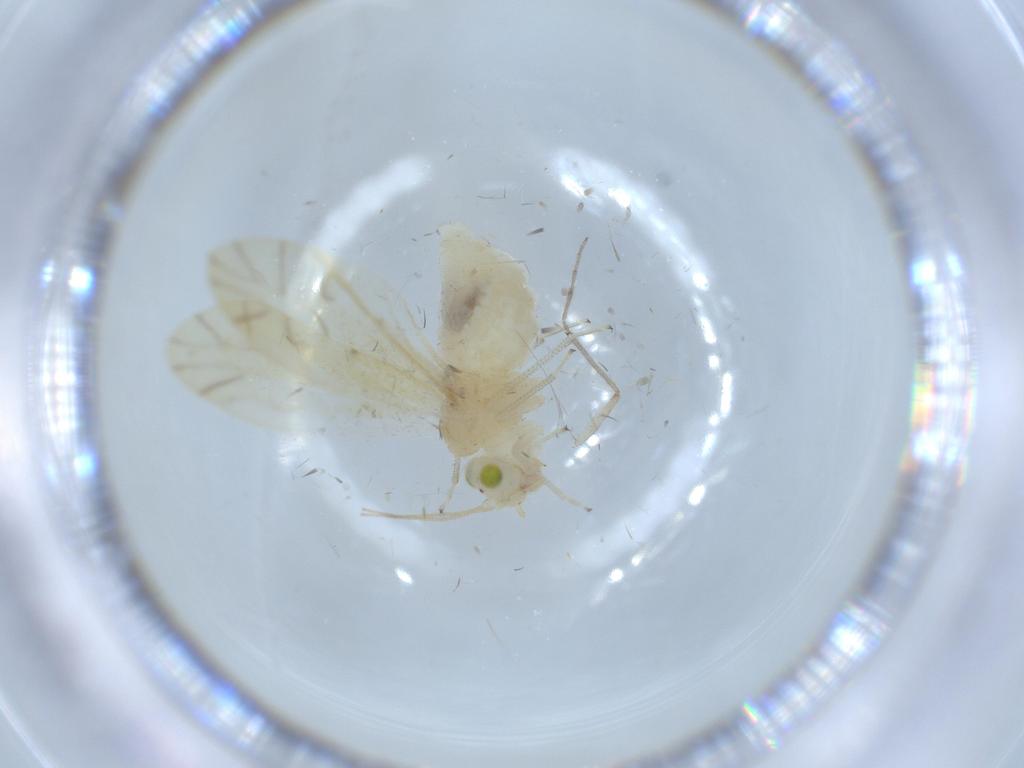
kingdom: Animalia
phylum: Arthropoda
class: Insecta
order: Psocodea
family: Caeciliusidae
